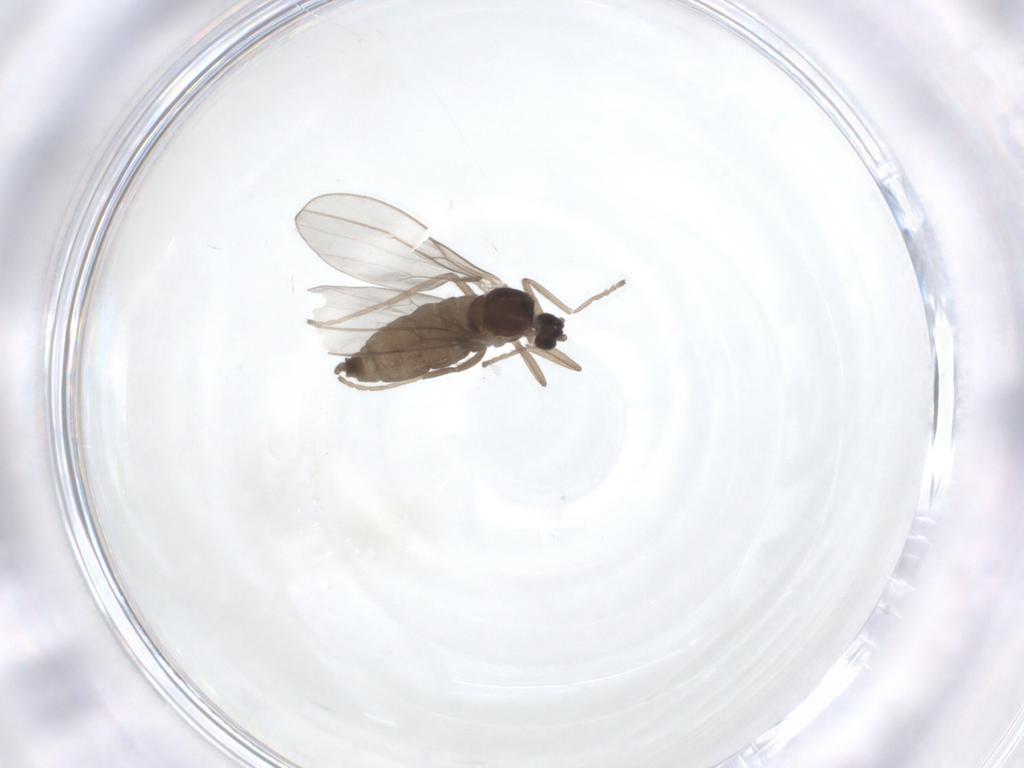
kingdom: Animalia
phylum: Arthropoda
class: Insecta
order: Diptera
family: Cecidomyiidae
